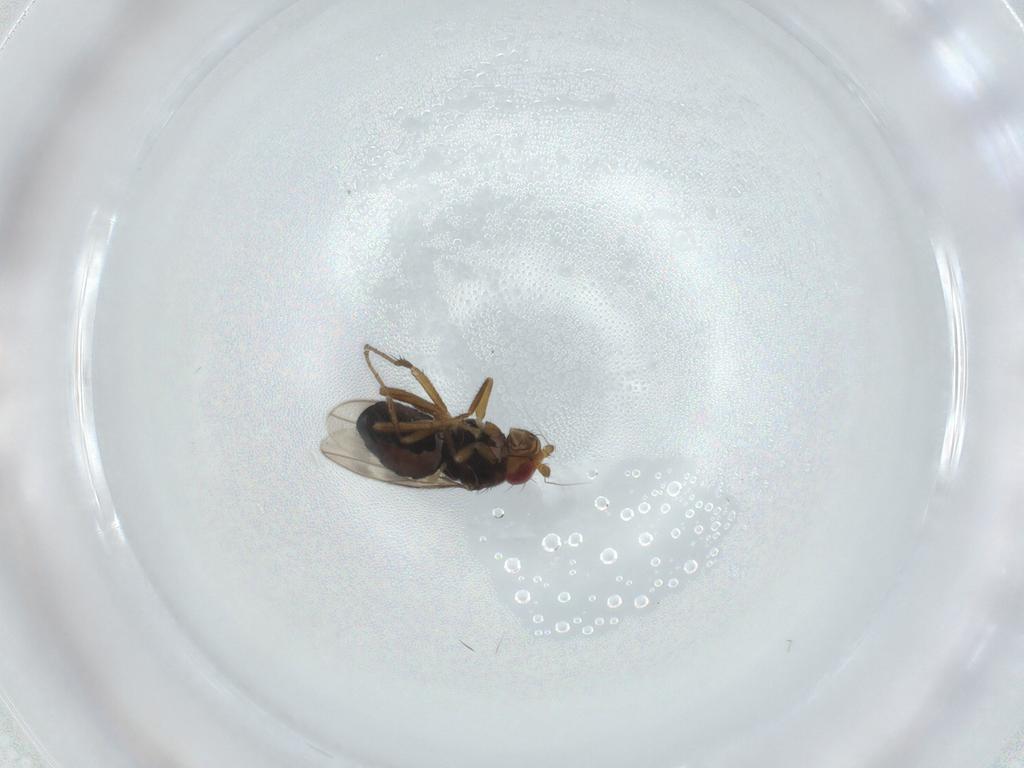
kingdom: Animalia
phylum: Arthropoda
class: Insecta
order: Diptera
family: Sphaeroceridae
